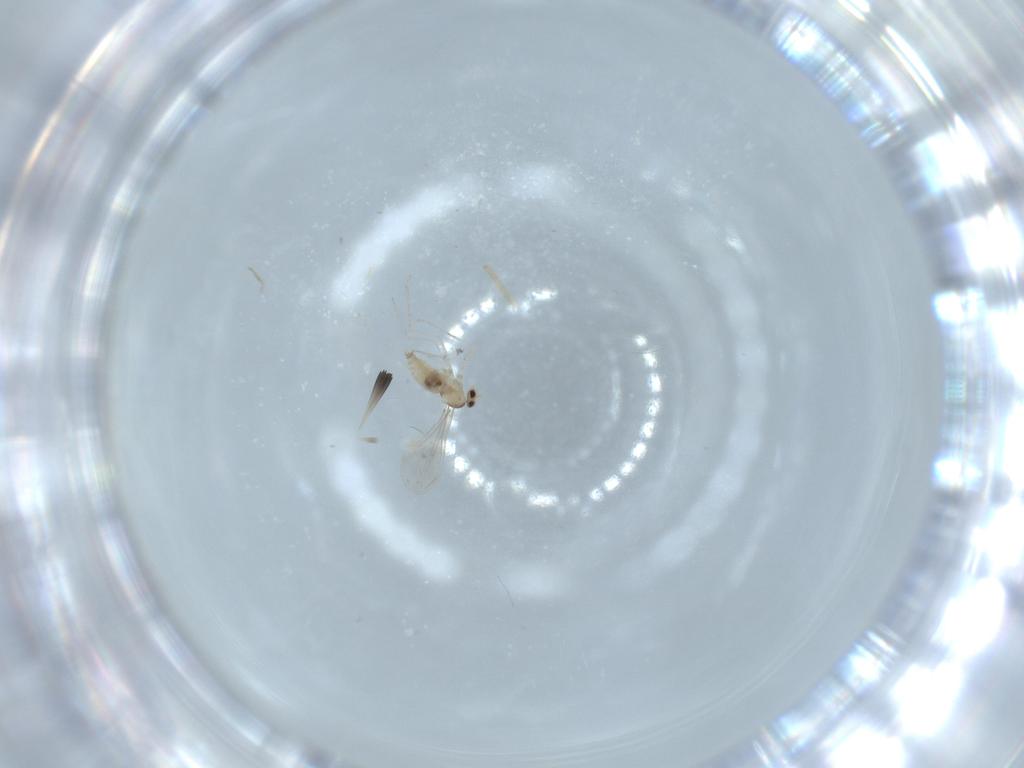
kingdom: Animalia
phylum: Arthropoda
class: Insecta
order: Diptera
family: Cecidomyiidae
